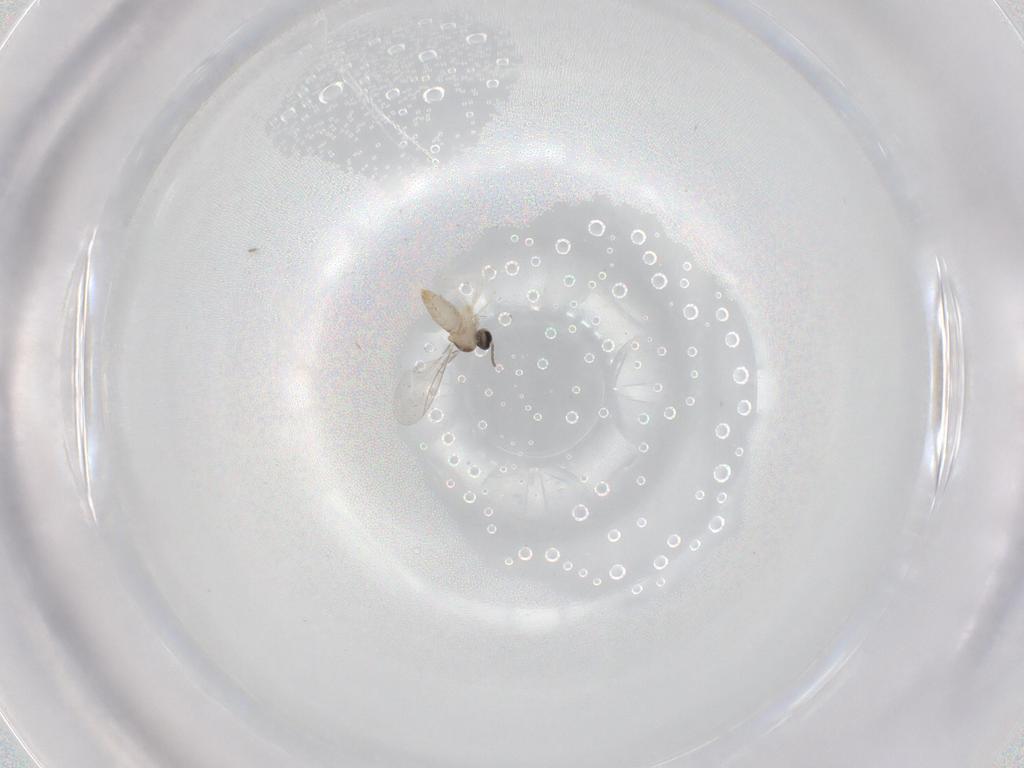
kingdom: Animalia
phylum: Arthropoda
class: Insecta
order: Diptera
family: Cecidomyiidae
